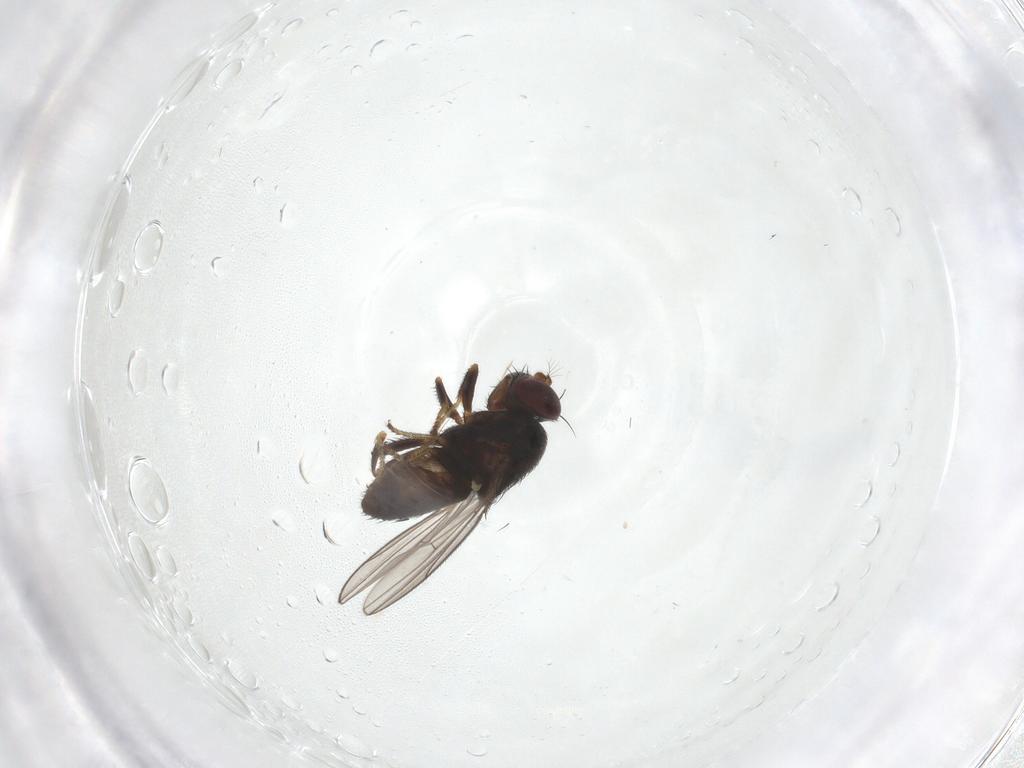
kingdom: Animalia
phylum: Arthropoda
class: Insecta
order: Diptera
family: Ephydridae
